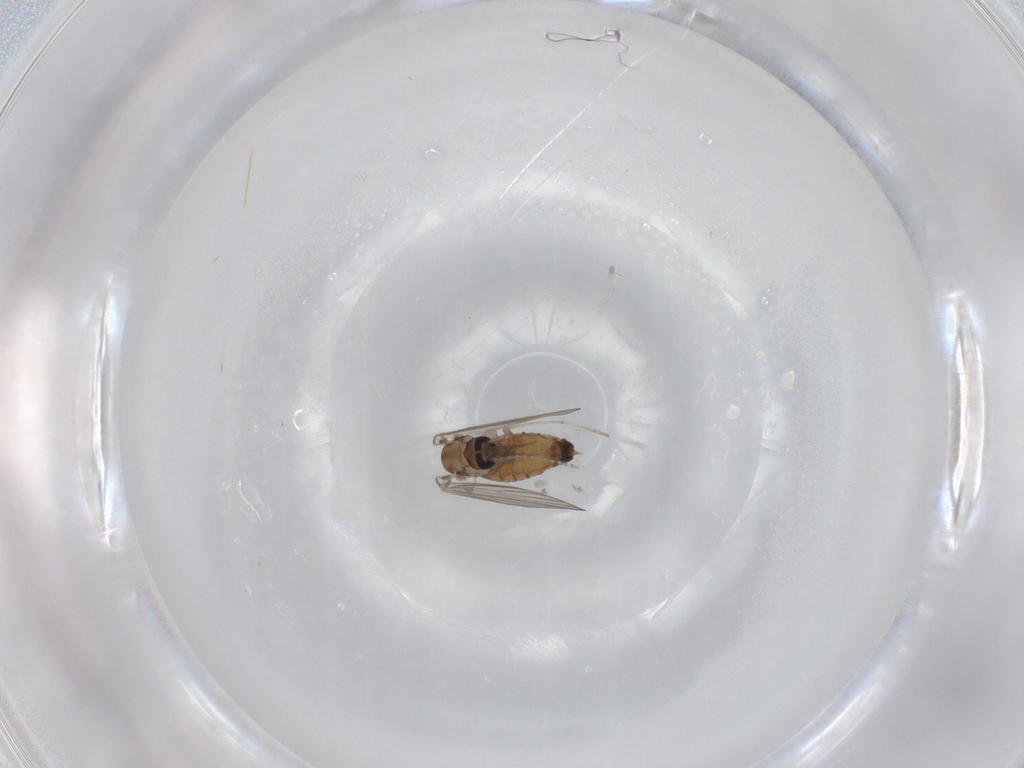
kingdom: Animalia
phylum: Arthropoda
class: Insecta
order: Diptera
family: Psychodidae
